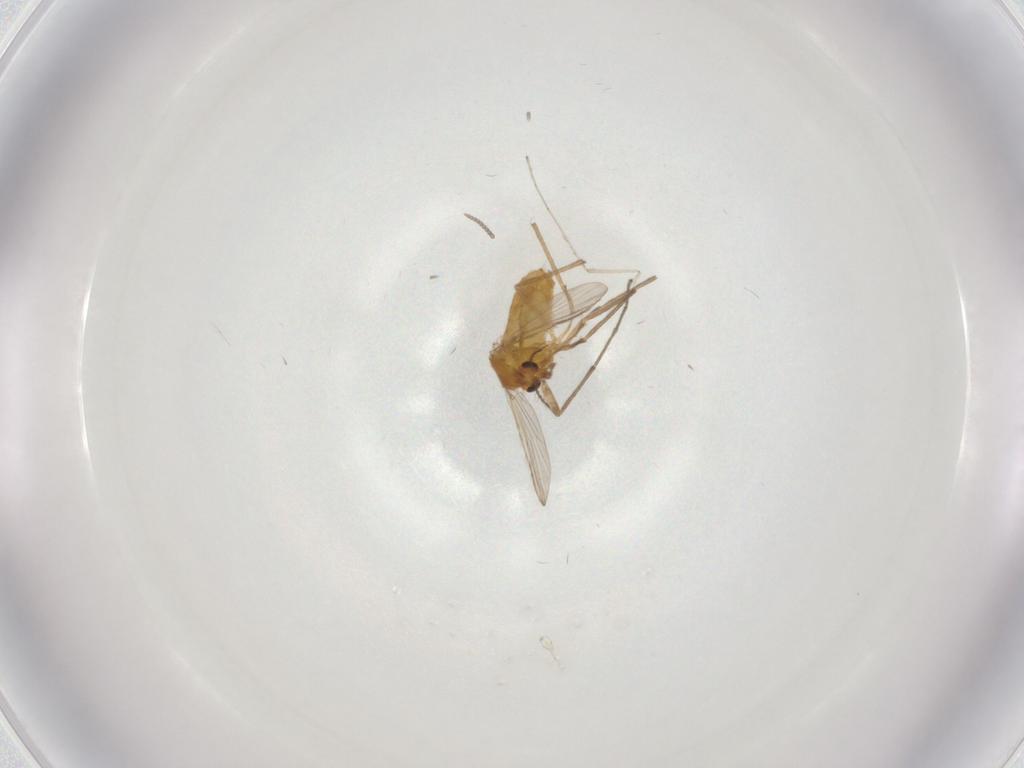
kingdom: Animalia
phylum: Arthropoda
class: Insecta
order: Diptera
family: Chironomidae
